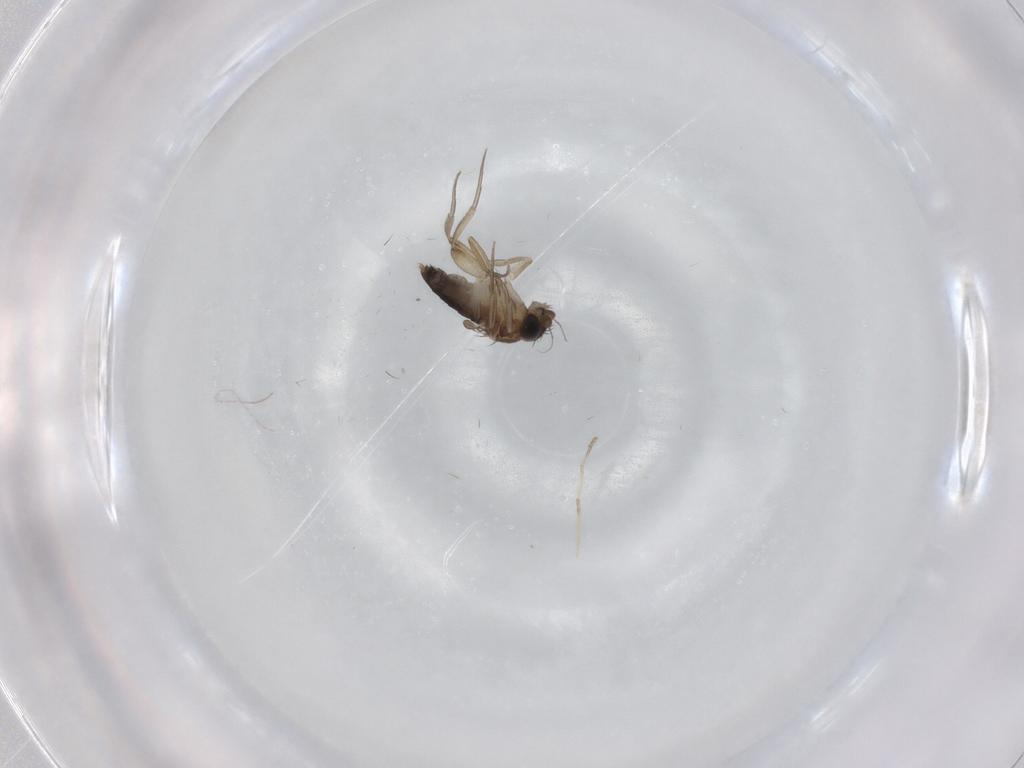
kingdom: Animalia
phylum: Arthropoda
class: Insecta
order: Diptera
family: Phoridae
